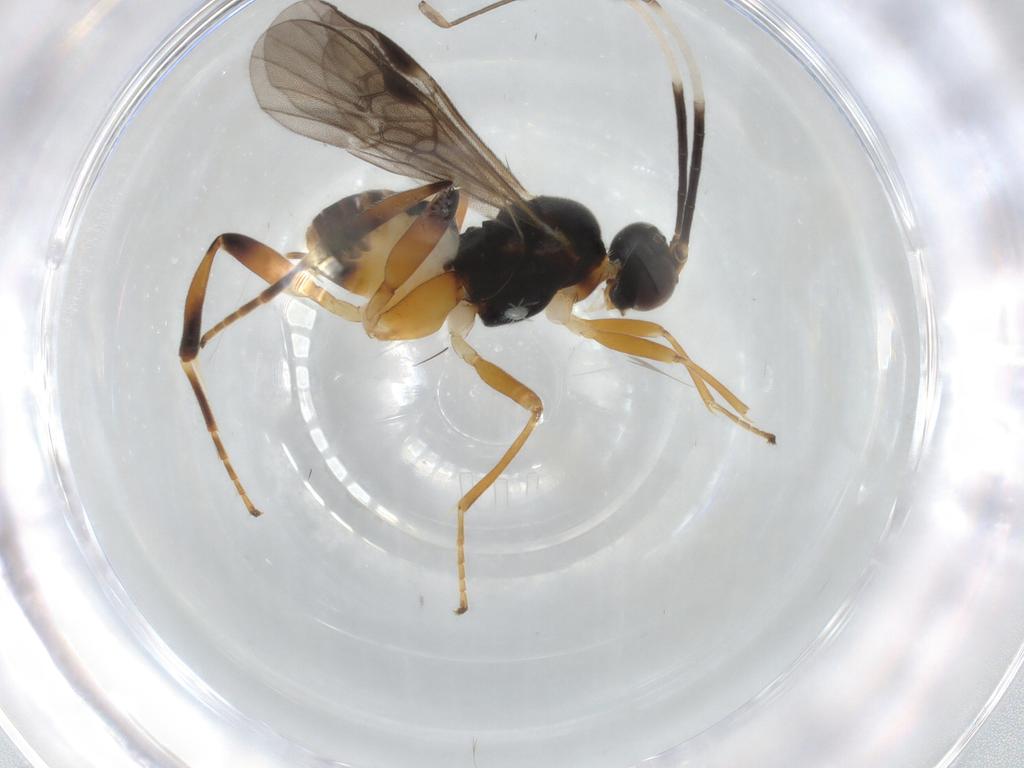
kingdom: Animalia
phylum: Arthropoda
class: Insecta
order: Hymenoptera
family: Braconidae
